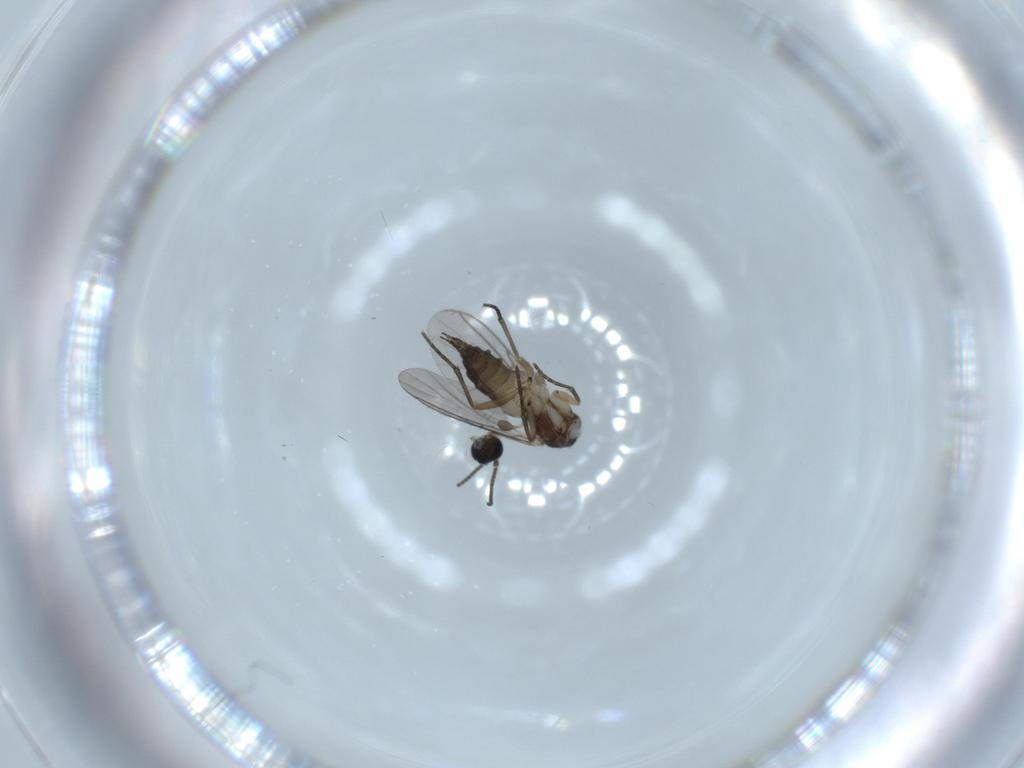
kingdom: Animalia
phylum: Arthropoda
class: Insecta
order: Diptera
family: Sciaridae
